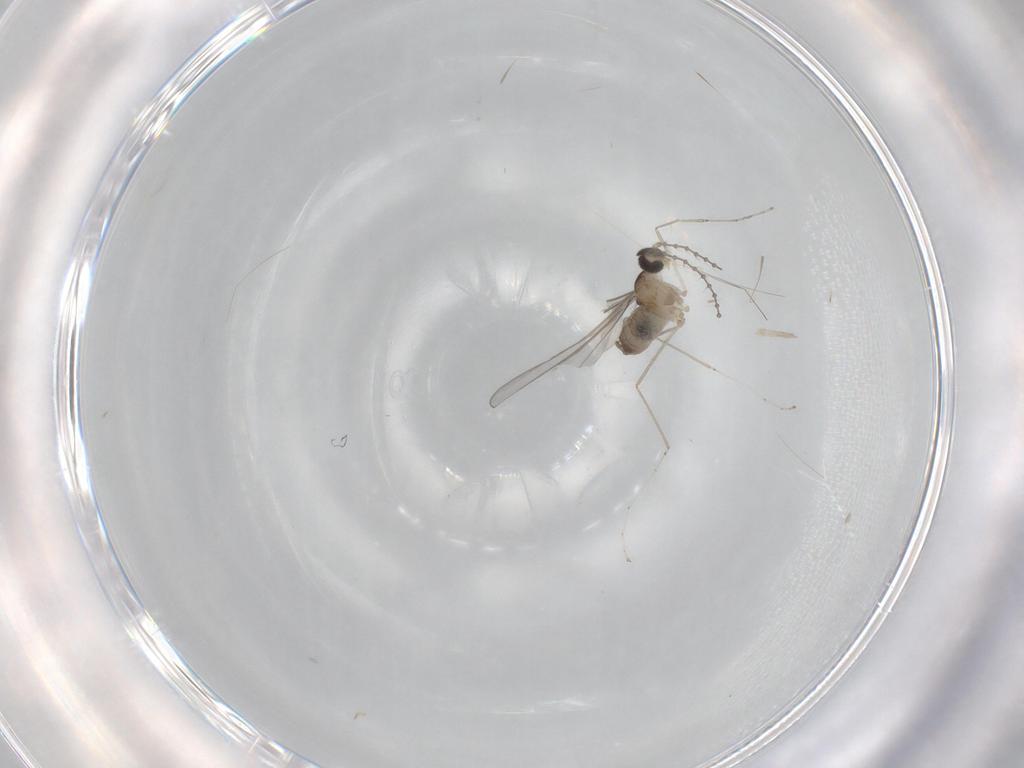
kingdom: Animalia
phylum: Arthropoda
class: Insecta
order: Diptera
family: Cecidomyiidae
